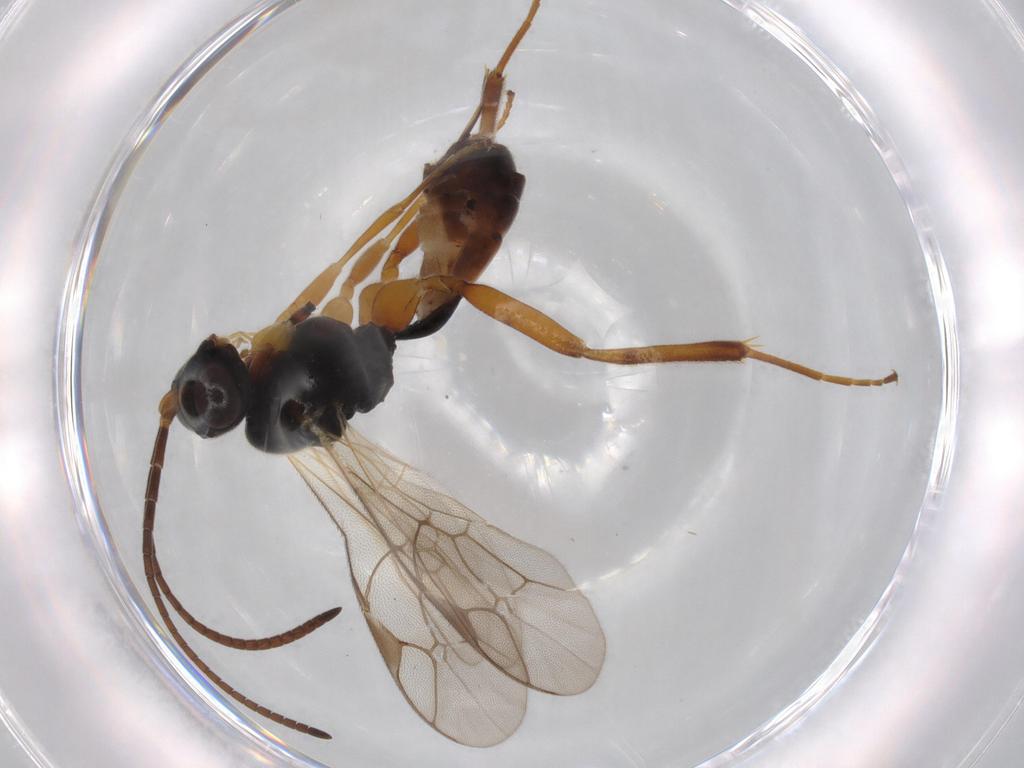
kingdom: Animalia
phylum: Arthropoda
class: Insecta
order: Hymenoptera
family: Ichneumonidae
